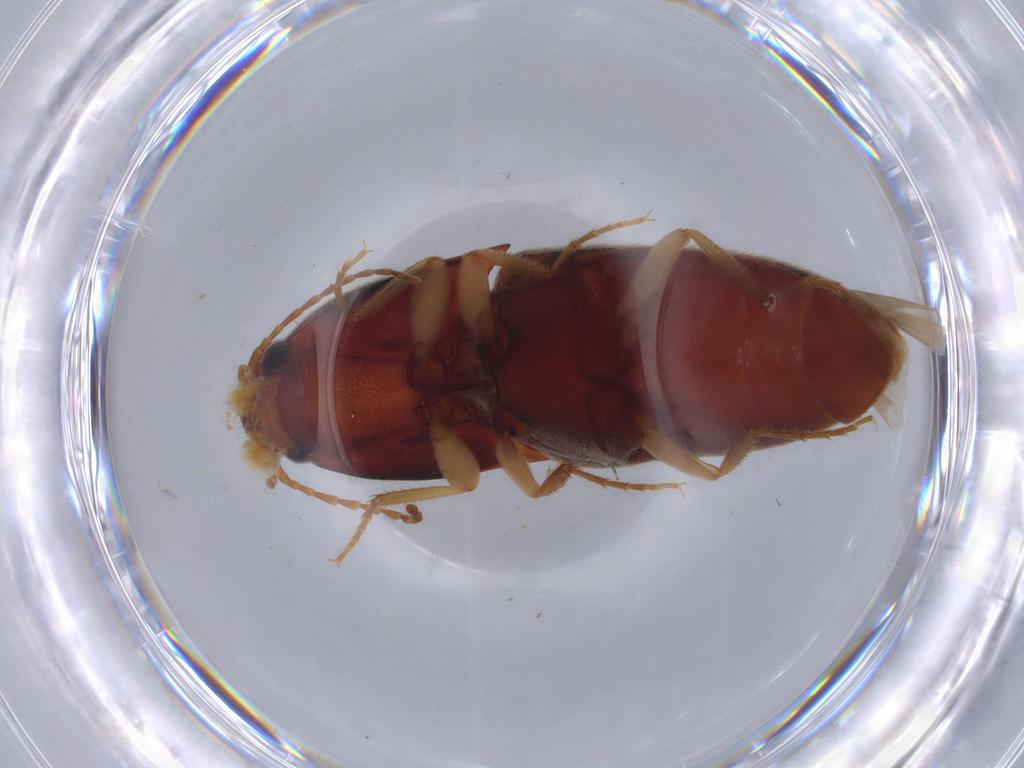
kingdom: Animalia
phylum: Arthropoda
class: Insecta
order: Coleoptera
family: Elateridae
